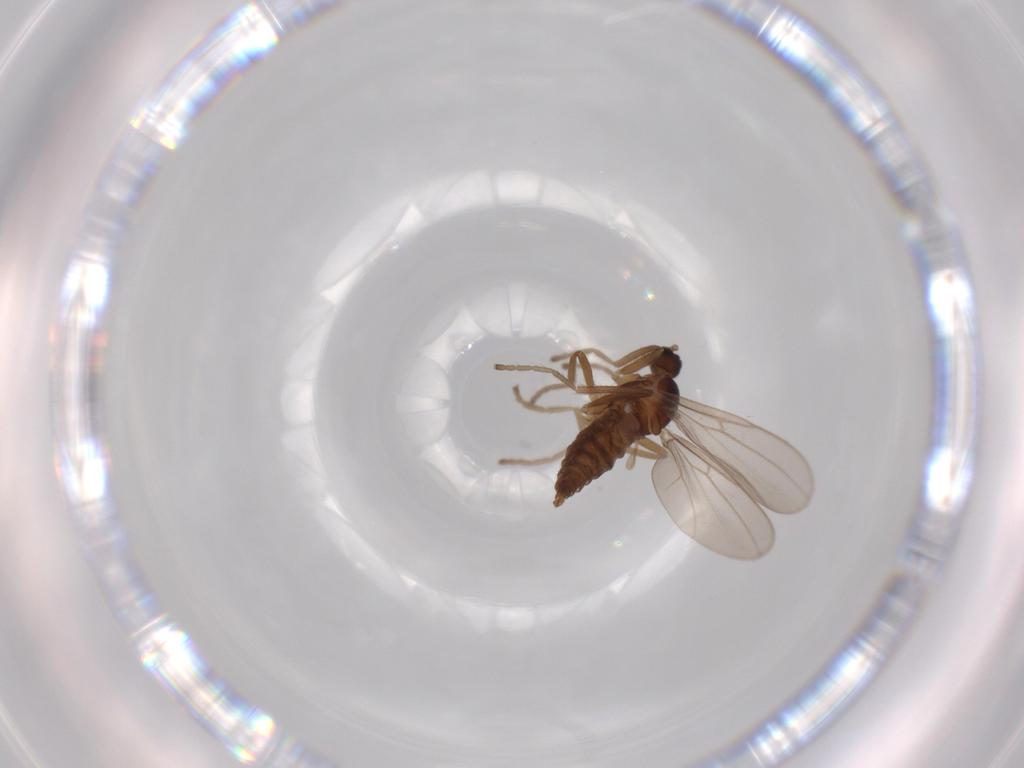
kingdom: Animalia
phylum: Arthropoda
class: Insecta
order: Diptera
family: Cecidomyiidae
